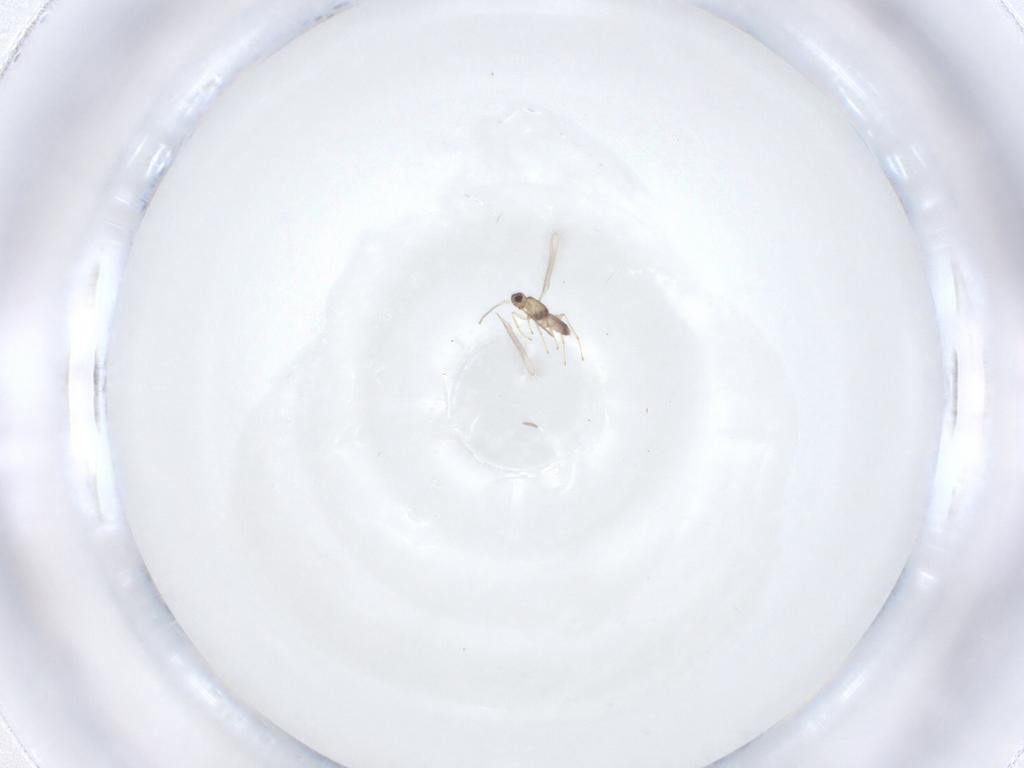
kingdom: Animalia
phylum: Arthropoda
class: Insecta
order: Hymenoptera
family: Mymaridae
